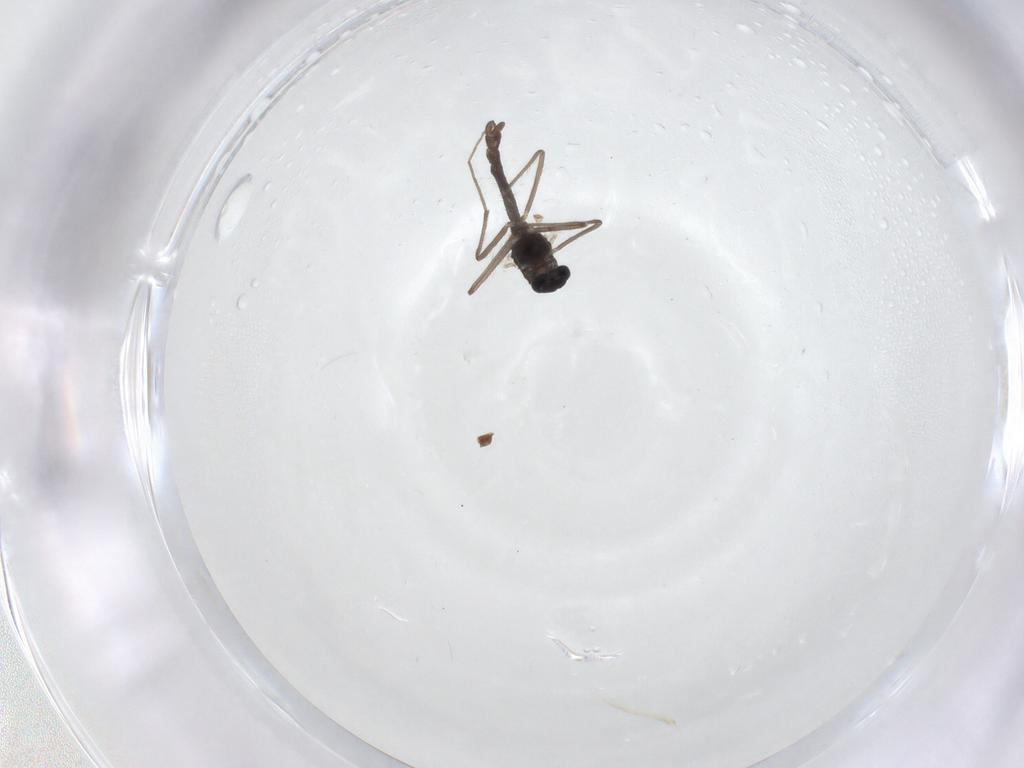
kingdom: Animalia
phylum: Arthropoda
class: Insecta
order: Diptera
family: Chironomidae
